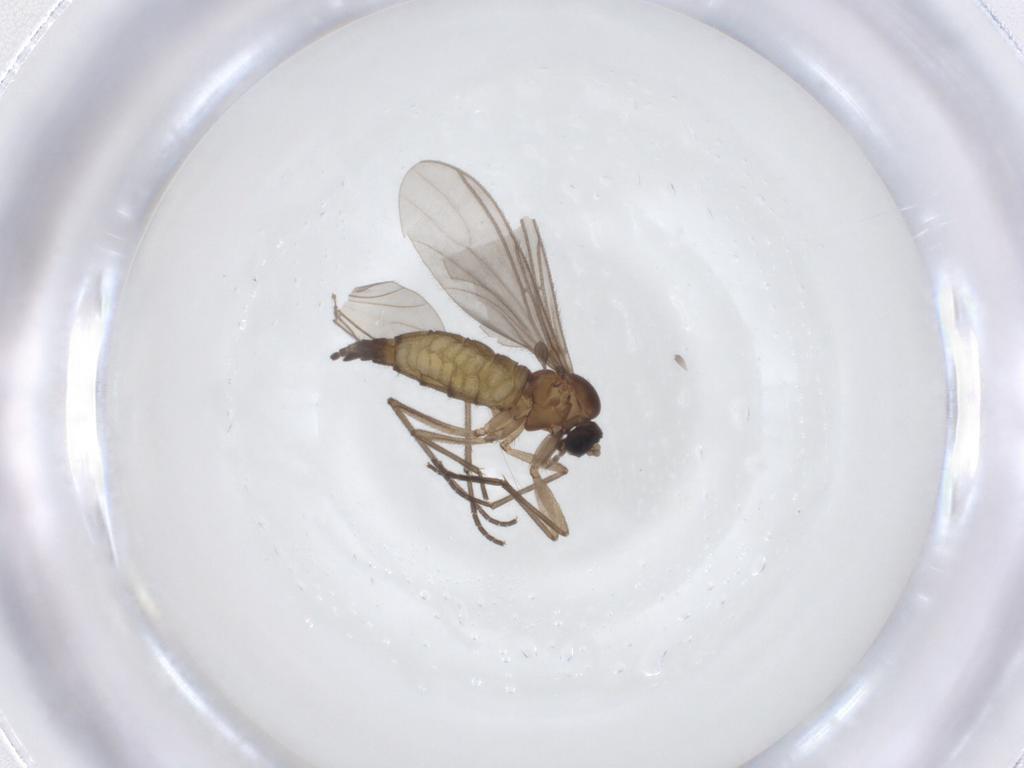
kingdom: Animalia
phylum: Arthropoda
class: Insecta
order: Diptera
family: Sciaridae
